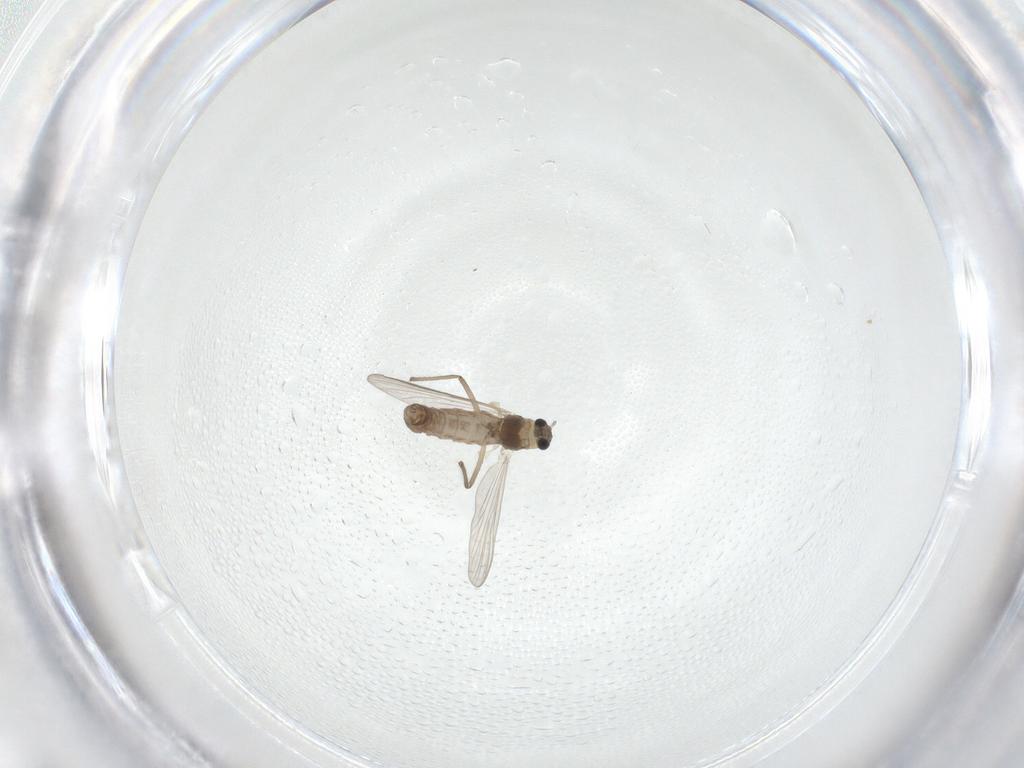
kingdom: Animalia
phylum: Arthropoda
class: Insecta
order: Diptera
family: Chironomidae
